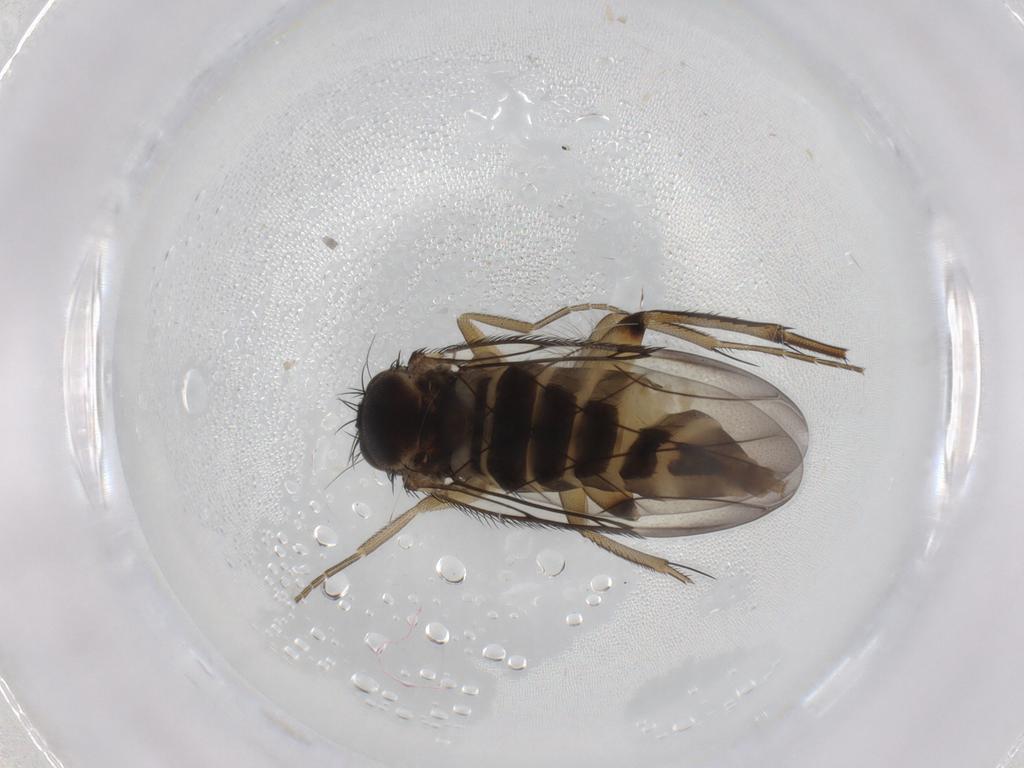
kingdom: Animalia
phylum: Arthropoda
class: Insecta
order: Diptera
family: Phoridae
